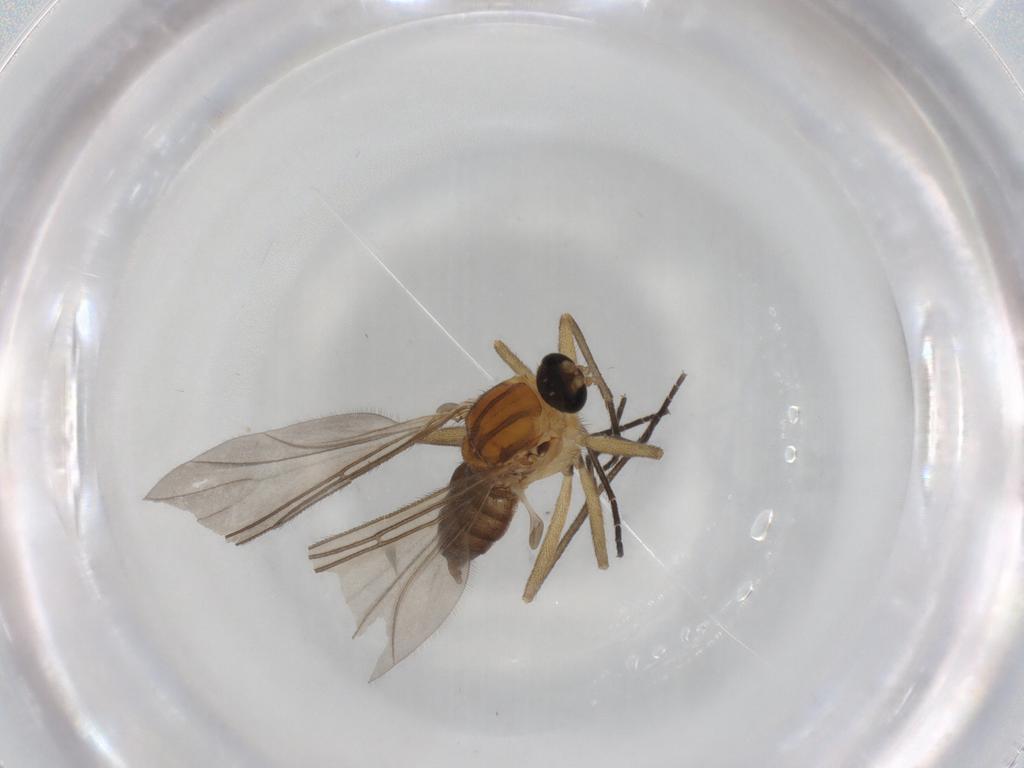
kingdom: Animalia
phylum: Arthropoda
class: Insecta
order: Diptera
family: Sciaridae
